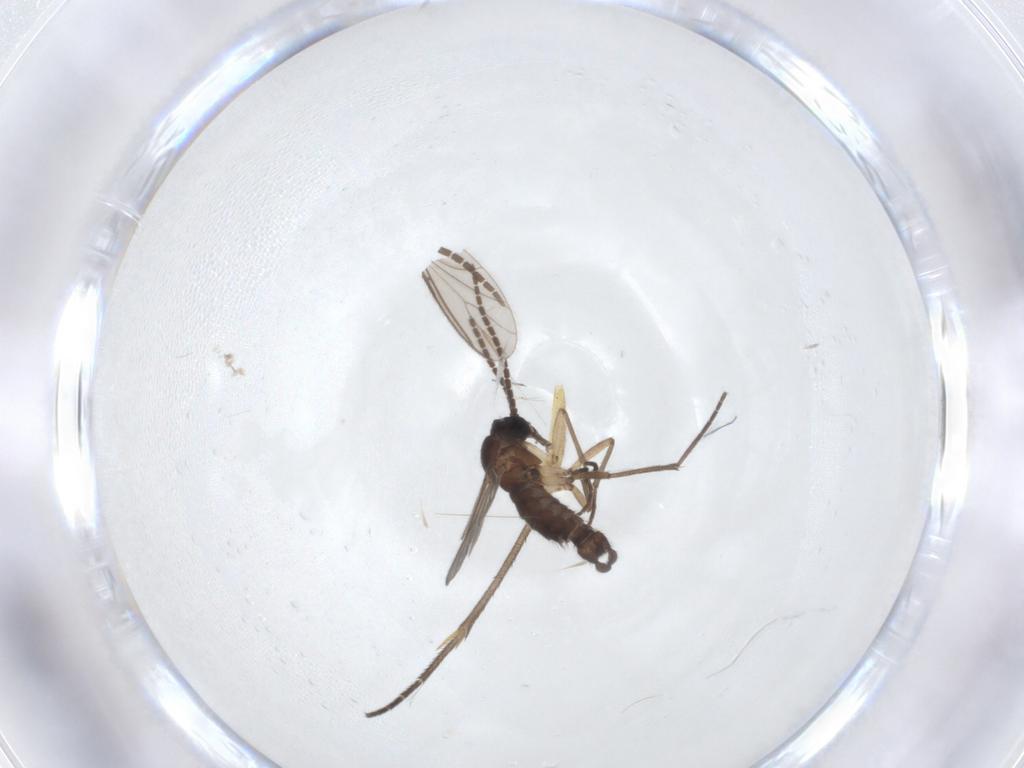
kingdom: Animalia
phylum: Arthropoda
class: Insecta
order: Diptera
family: Sciaridae
